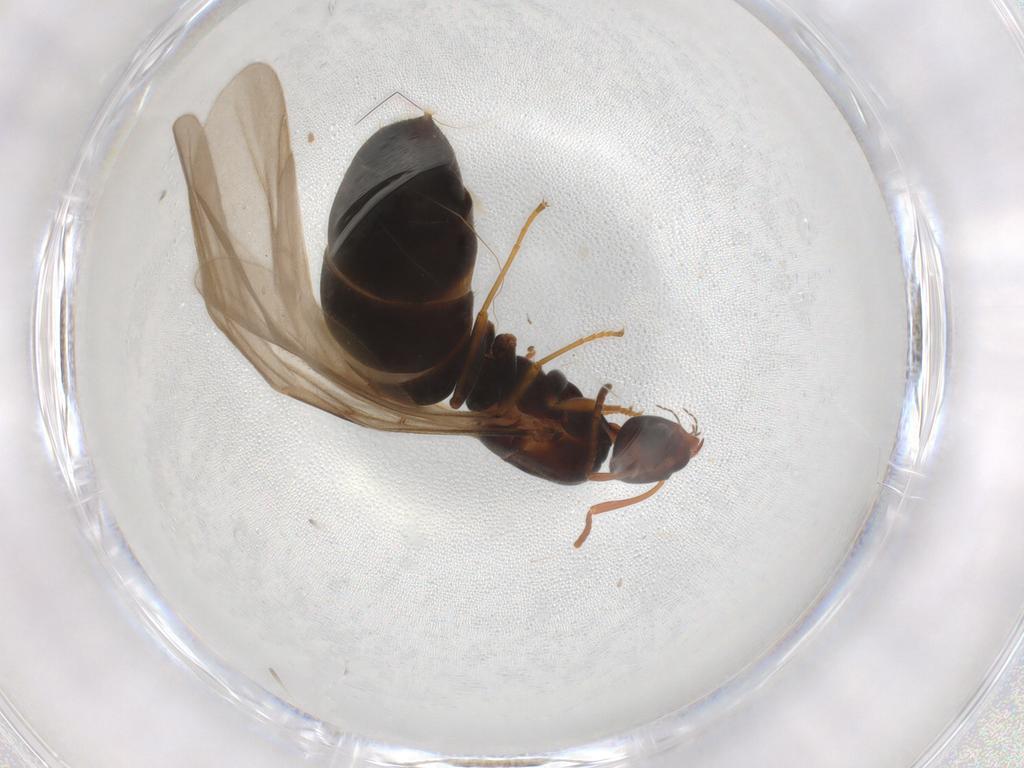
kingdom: Animalia
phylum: Arthropoda
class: Insecta
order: Hymenoptera
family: Formicidae
